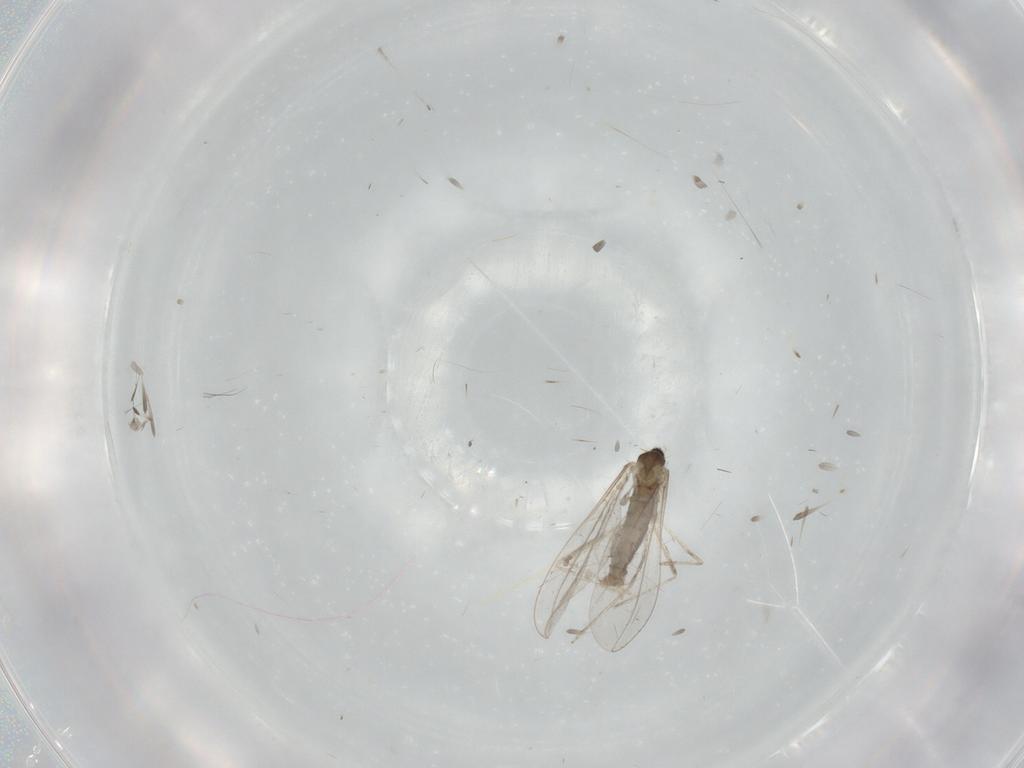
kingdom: Animalia
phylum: Arthropoda
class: Insecta
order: Diptera
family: Cecidomyiidae
